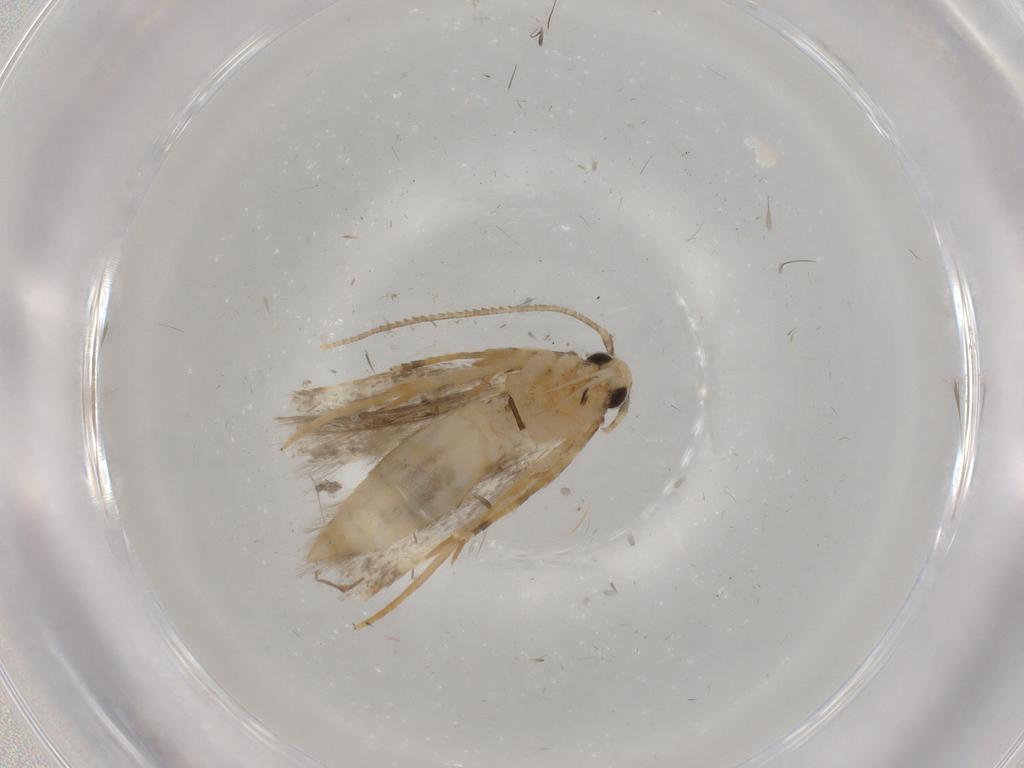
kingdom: Animalia
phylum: Arthropoda
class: Insecta
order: Lepidoptera
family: Autostichidae
